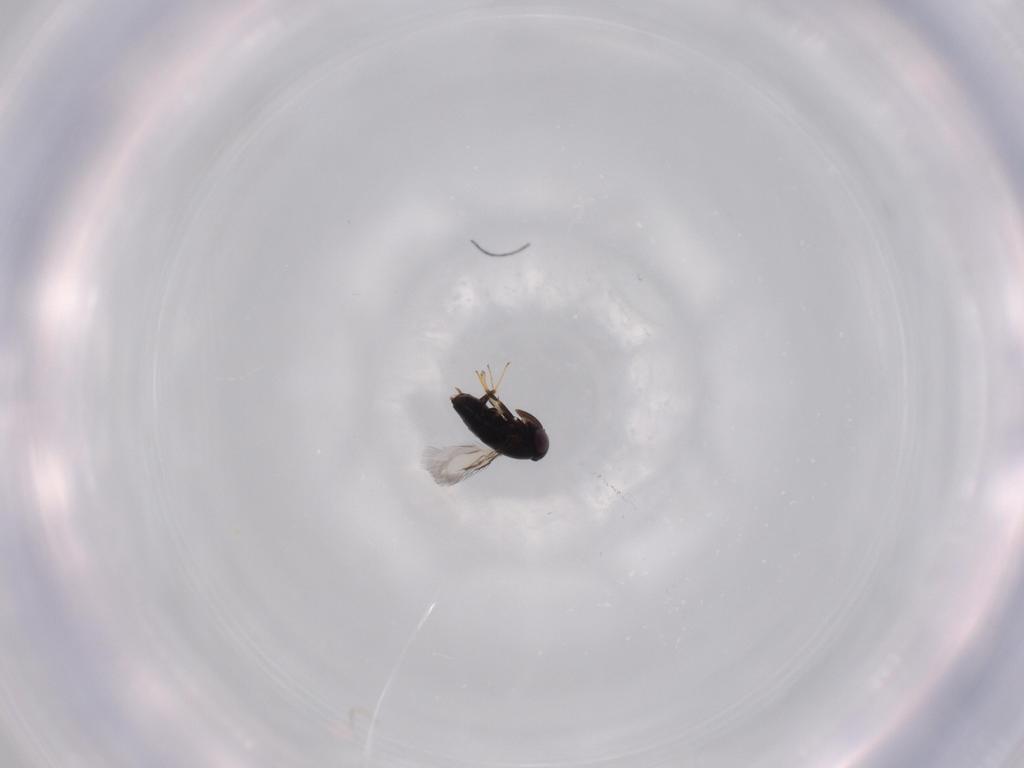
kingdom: Animalia
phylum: Arthropoda
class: Insecta
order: Hymenoptera
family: Signiphoridae
